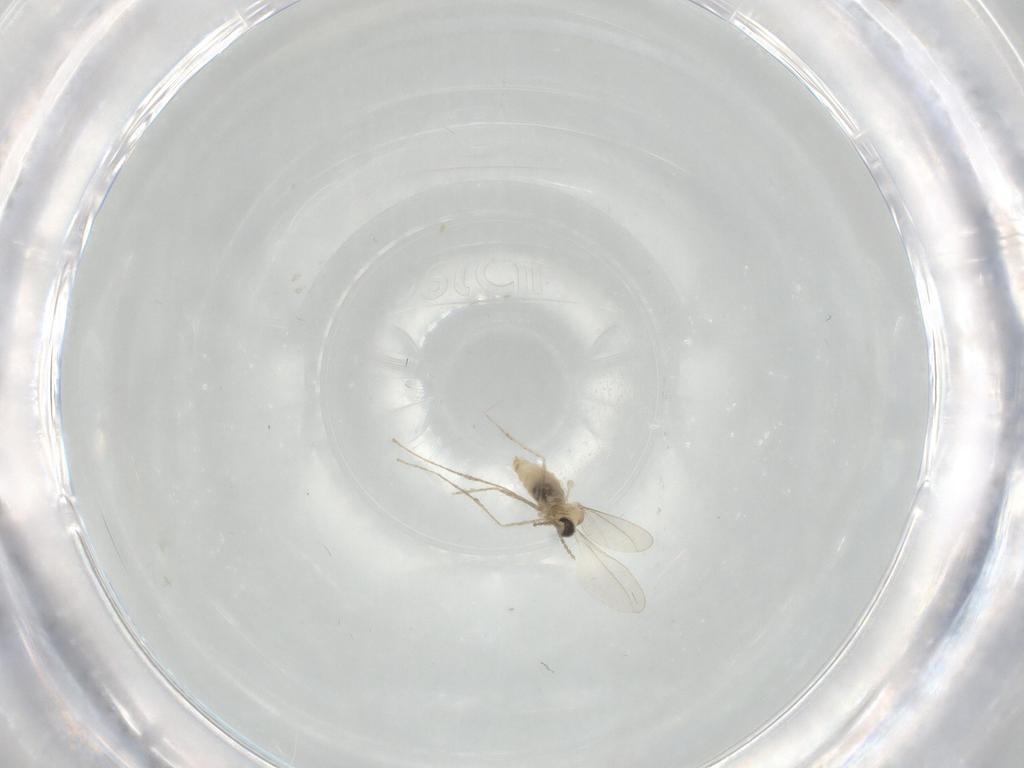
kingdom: Animalia
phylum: Arthropoda
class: Insecta
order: Diptera
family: Cecidomyiidae
